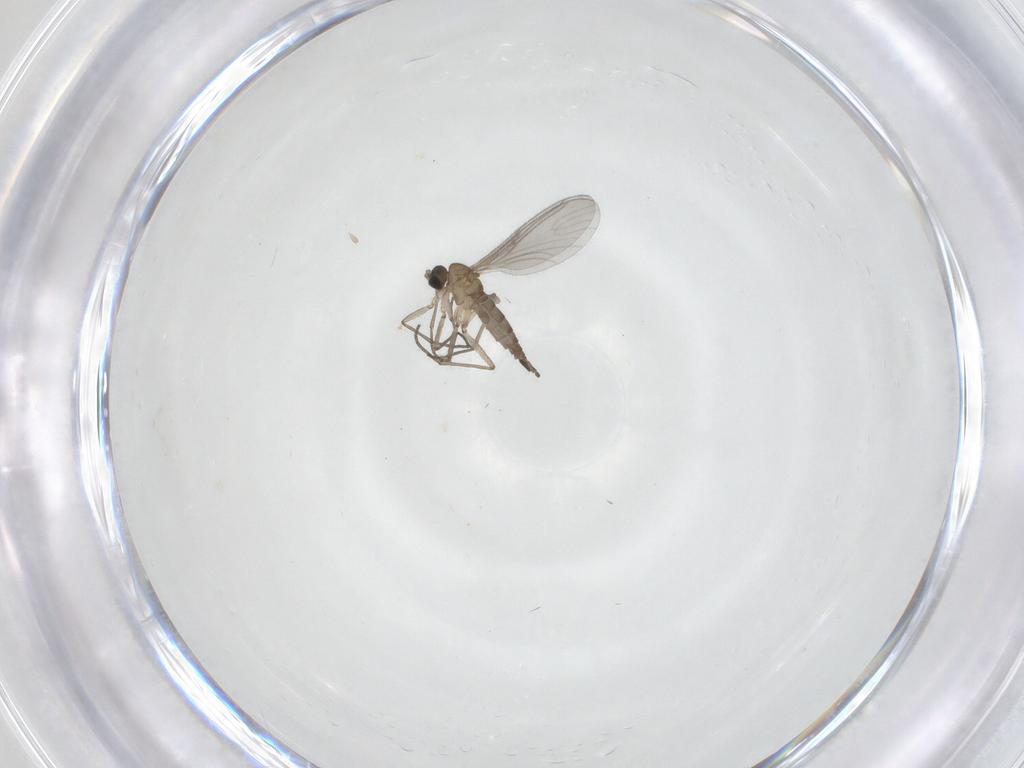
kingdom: Animalia
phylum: Arthropoda
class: Insecta
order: Diptera
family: Sciaridae
